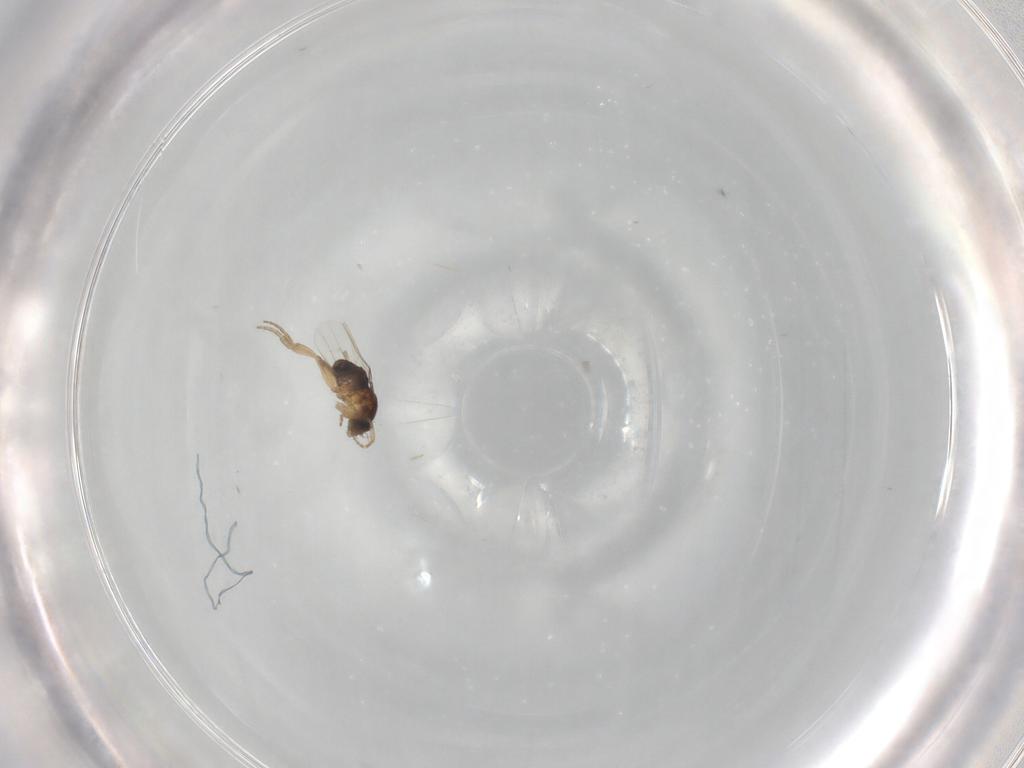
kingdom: Animalia
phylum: Arthropoda
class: Insecta
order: Diptera
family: Phoridae
